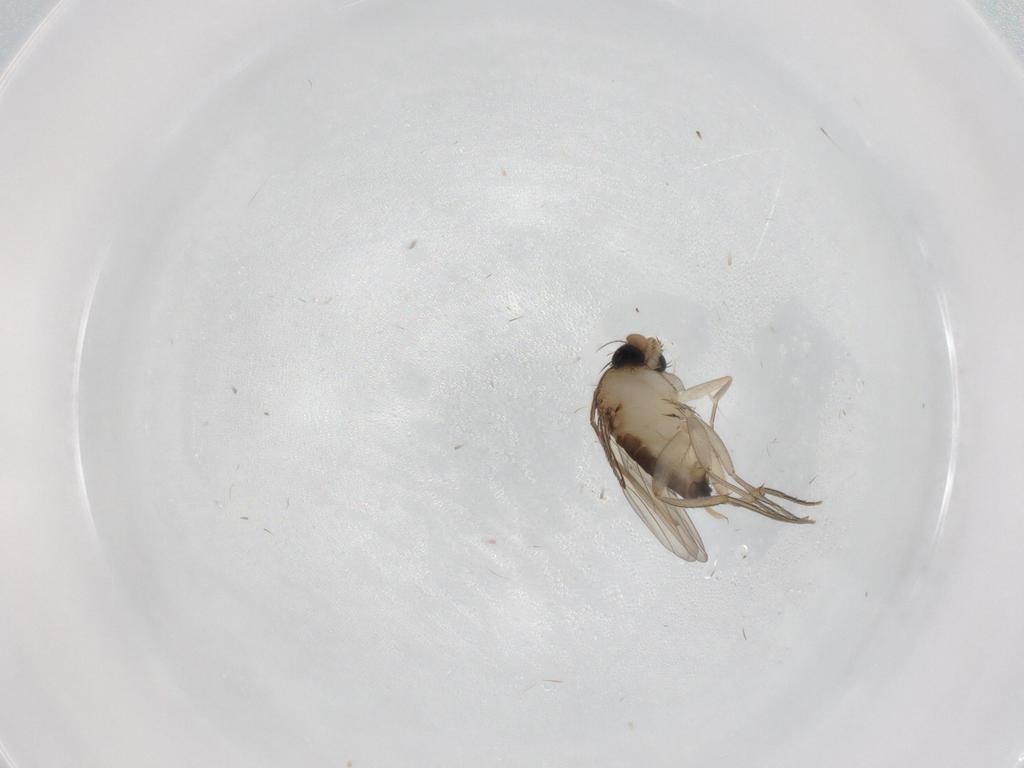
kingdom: Animalia
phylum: Arthropoda
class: Insecta
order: Diptera
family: Phoridae
